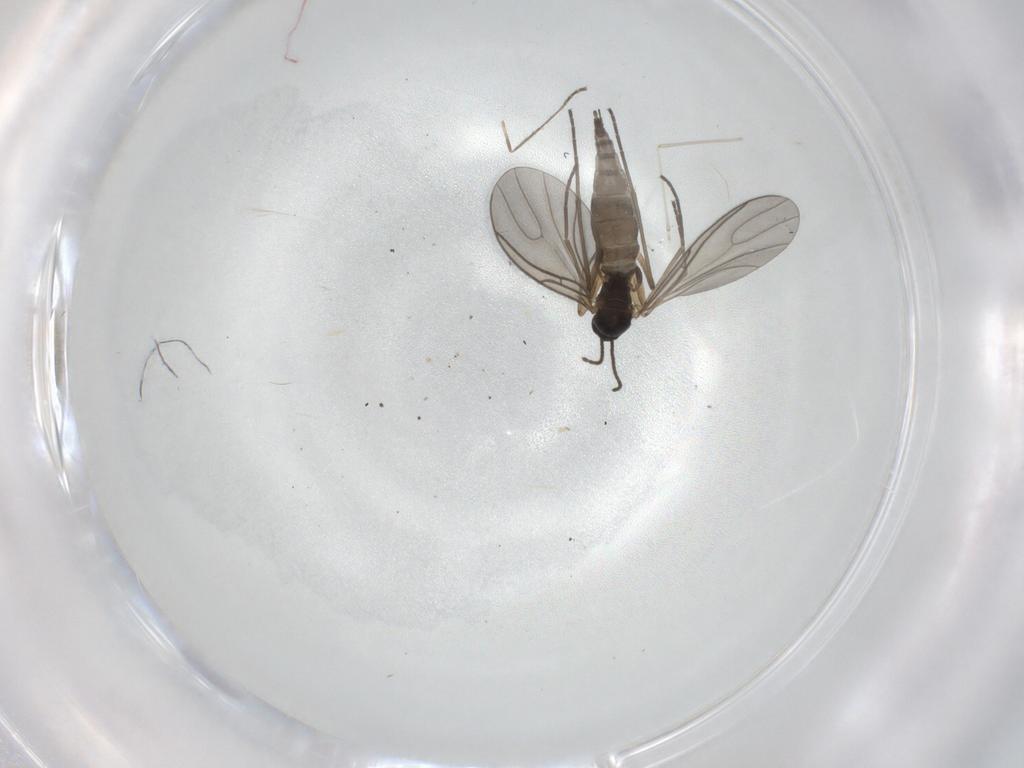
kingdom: Animalia
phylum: Arthropoda
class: Insecta
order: Diptera
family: Sciaridae
